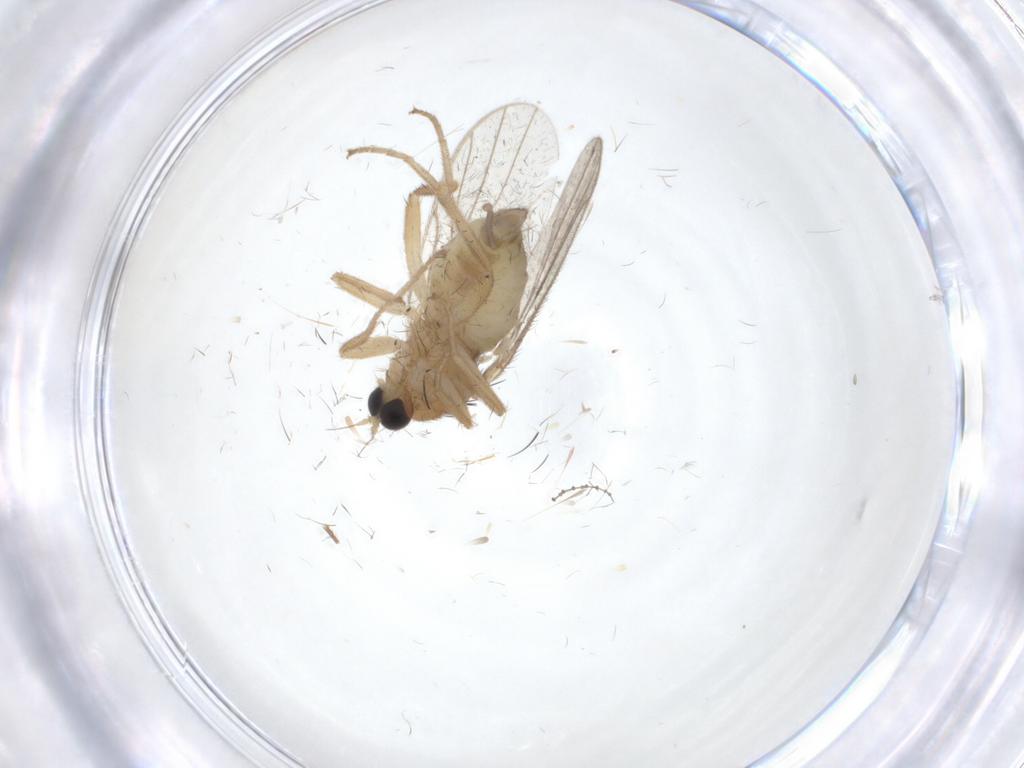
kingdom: Animalia
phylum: Arthropoda
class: Insecta
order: Diptera
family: Hybotidae
